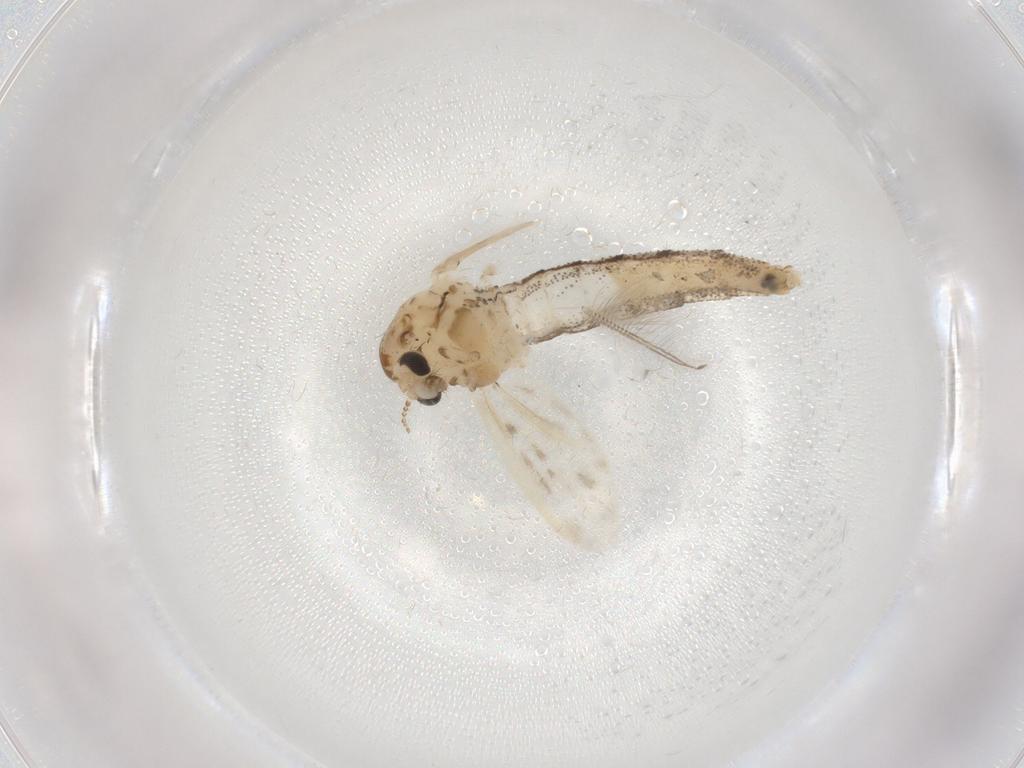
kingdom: Animalia
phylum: Arthropoda
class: Insecta
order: Diptera
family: Chaoboridae
